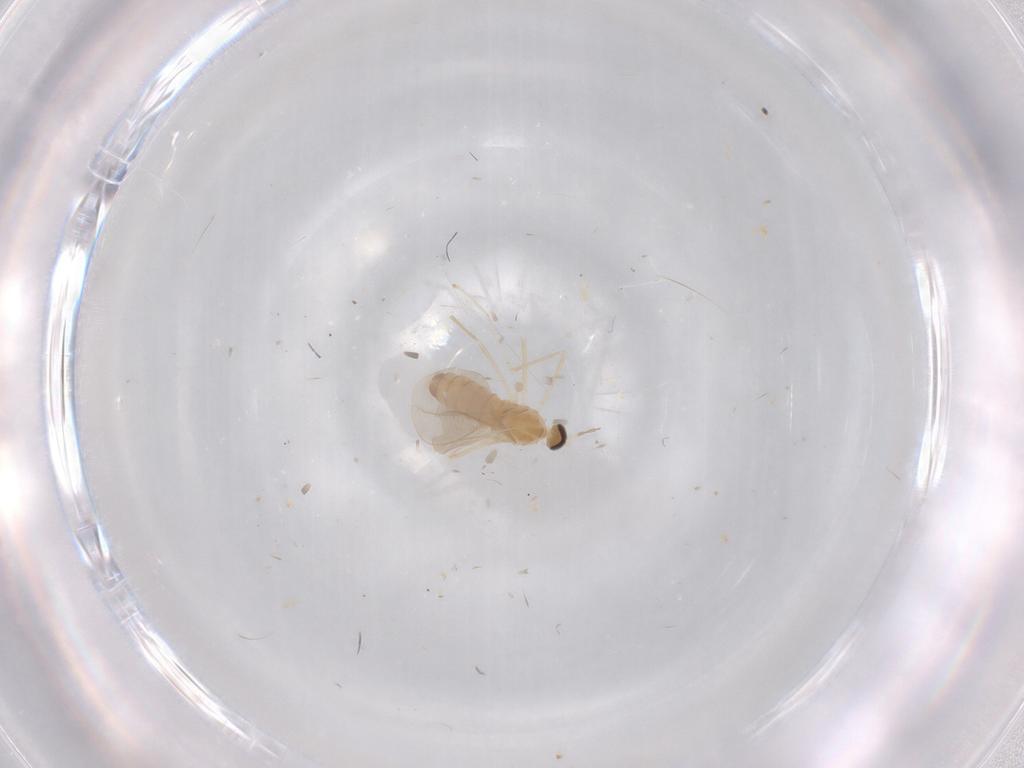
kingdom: Animalia
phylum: Arthropoda
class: Insecta
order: Diptera
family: Cecidomyiidae
